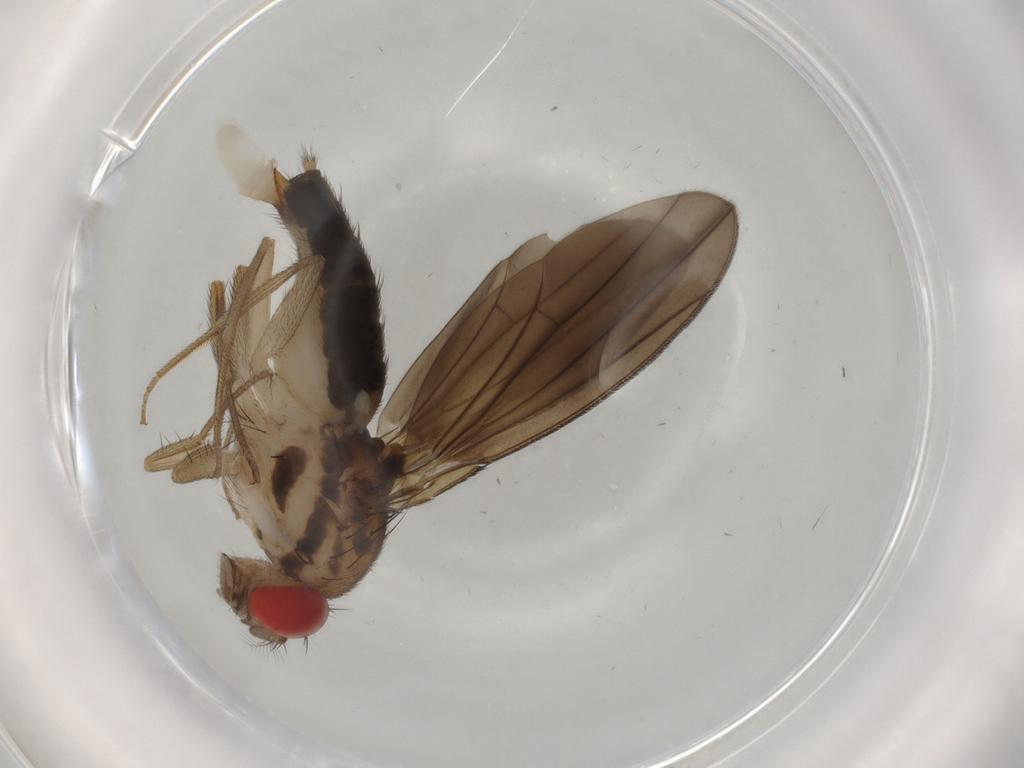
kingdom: Animalia
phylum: Arthropoda
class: Insecta
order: Diptera
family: Drosophilidae
